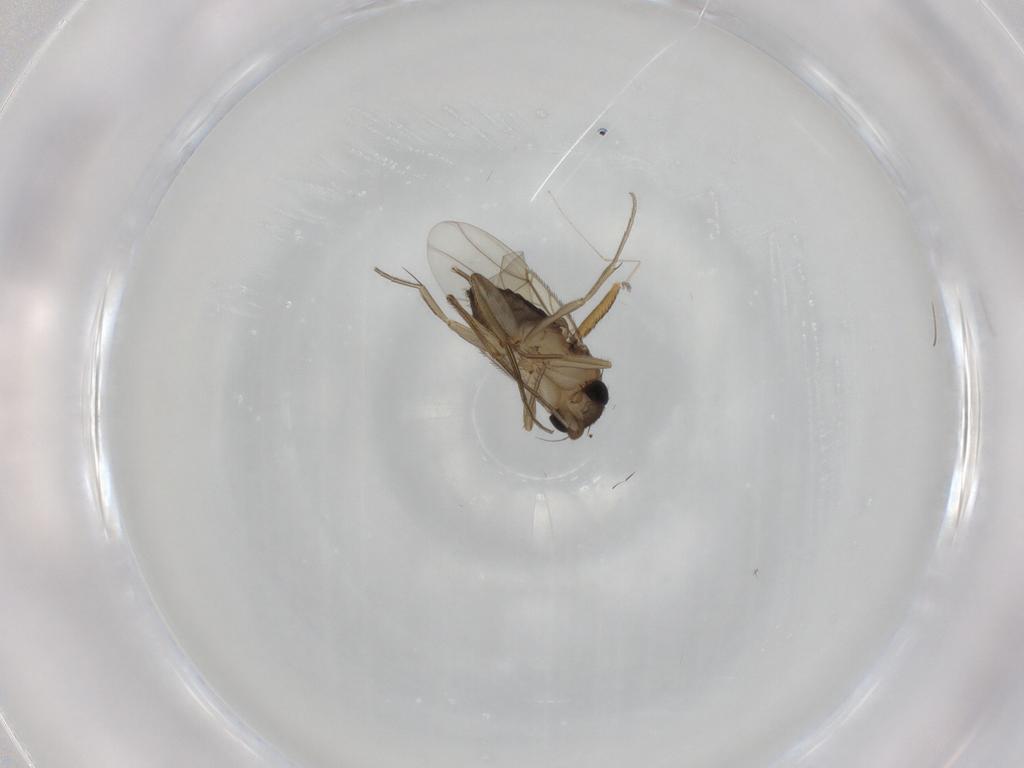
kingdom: Animalia
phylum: Arthropoda
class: Insecta
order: Diptera
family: Phoridae
